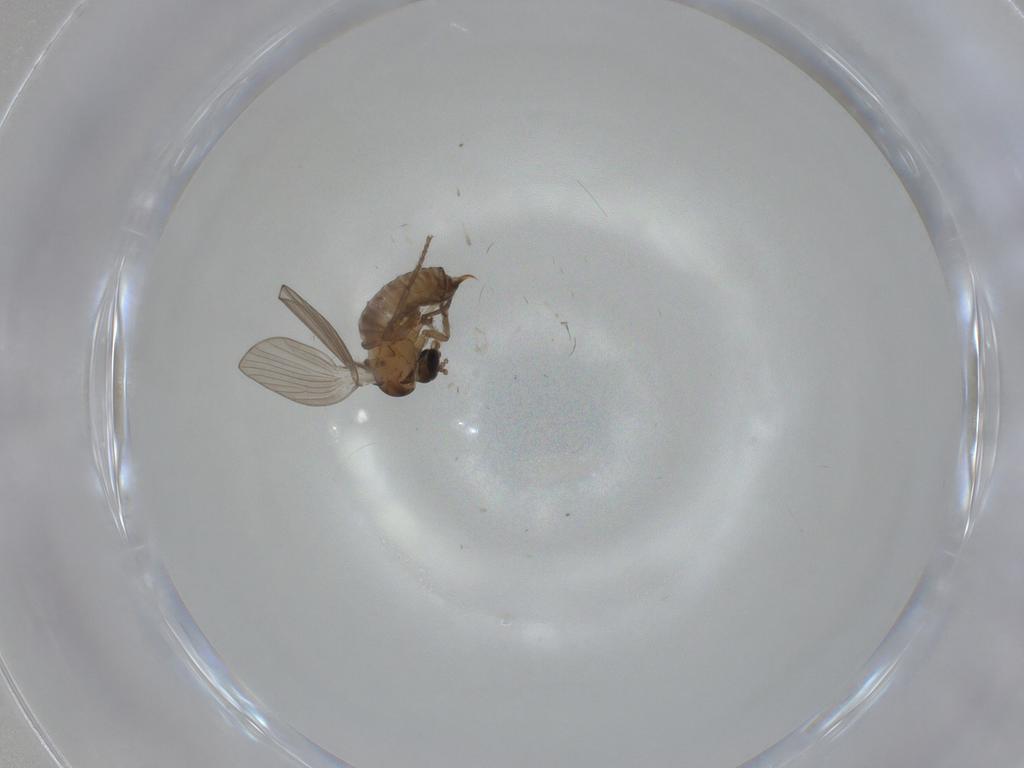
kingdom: Animalia
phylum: Arthropoda
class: Insecta
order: Diptera
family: Psychodidae
